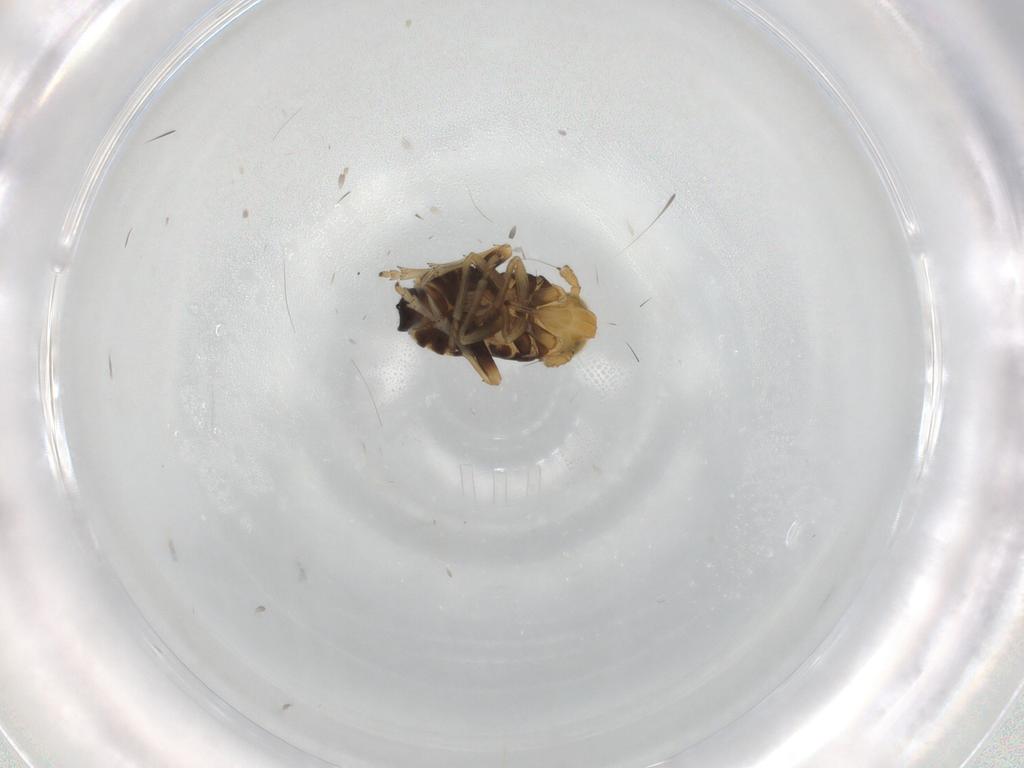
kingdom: Animalia
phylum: Arthropoda
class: Insecta
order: Hemiptera
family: Delphacidae
